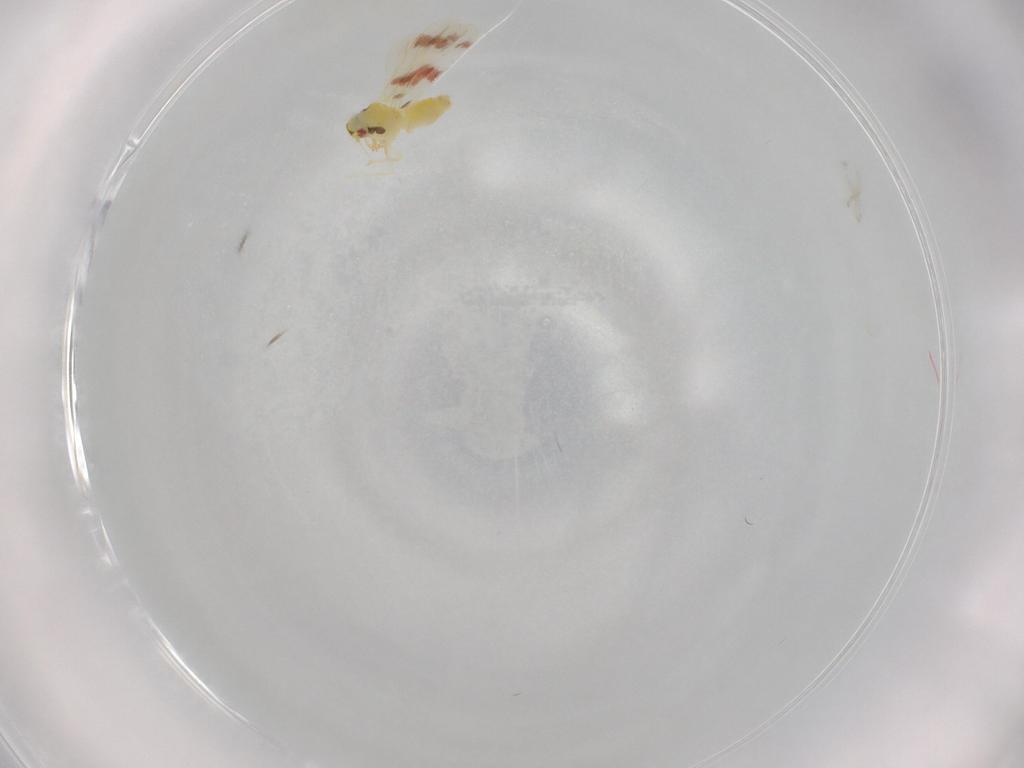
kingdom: Animalia
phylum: Arthropoda
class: Insecta
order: Hemiptera
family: Clastopteridae
